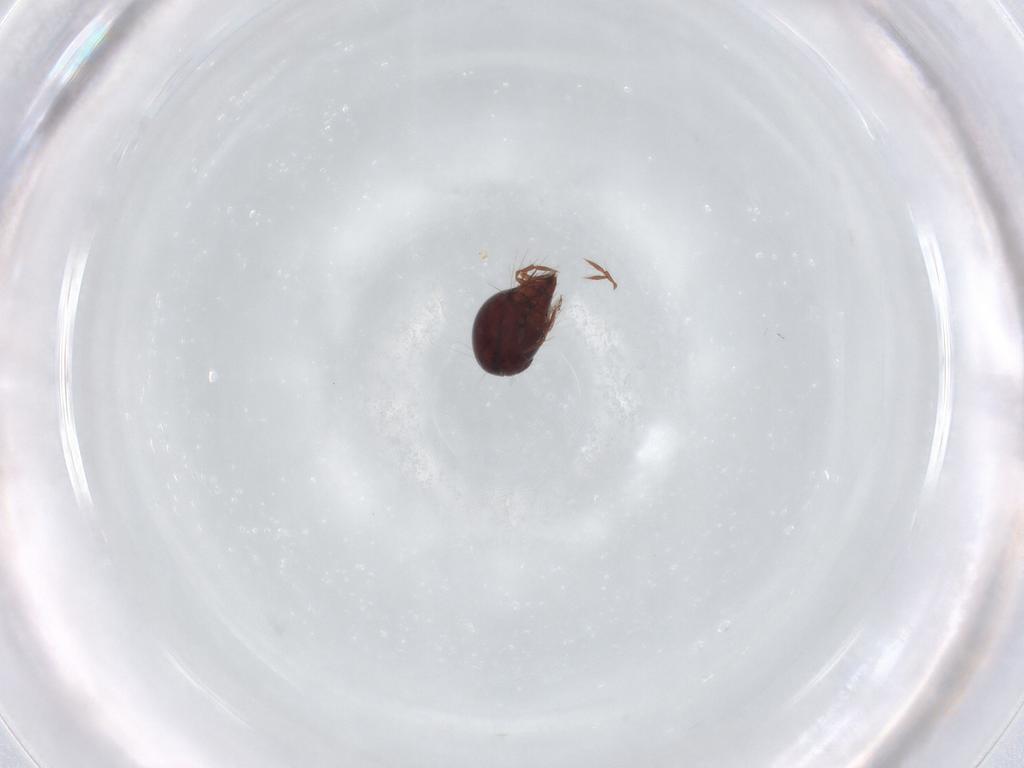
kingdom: Animalia
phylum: Arthropoda
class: Arachnida
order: Sarcoptiformes
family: Ceratoppiidae
